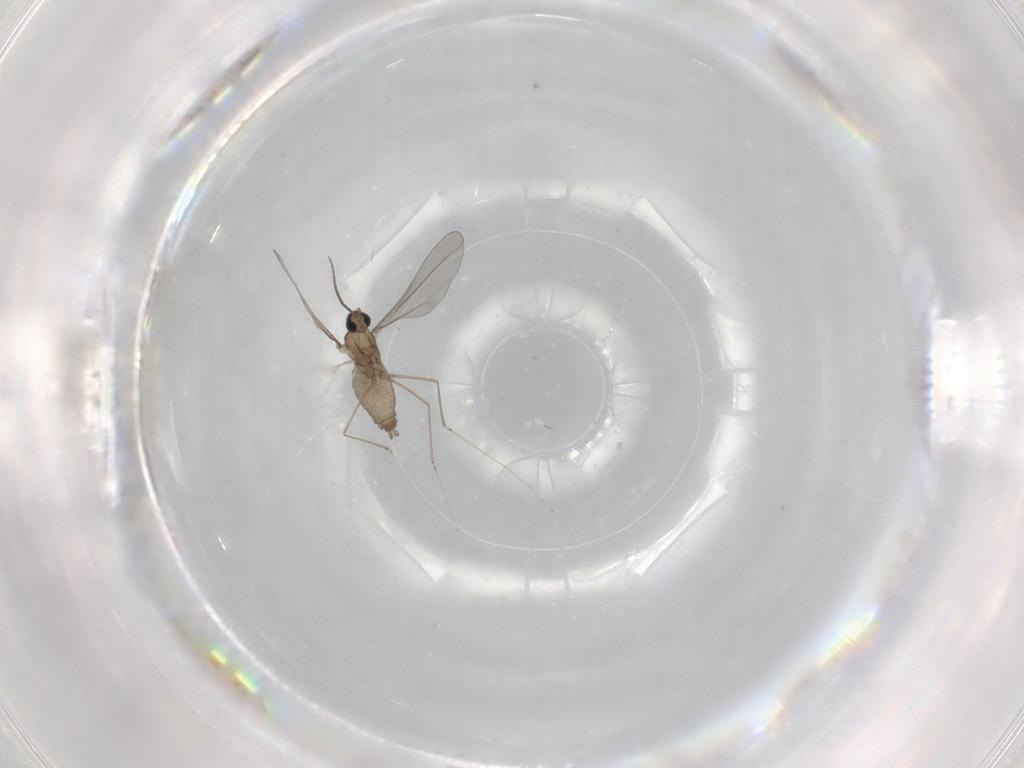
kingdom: Animalia
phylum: Arthropoda
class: Insecta
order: Diptera
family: Cecidomyiidae
